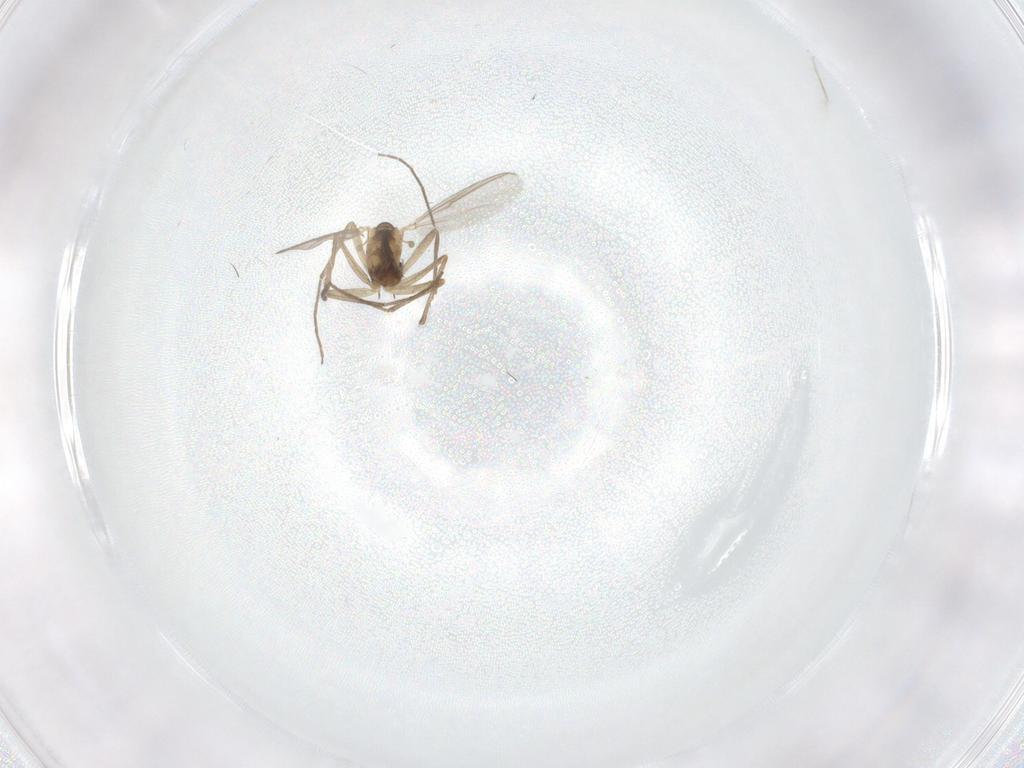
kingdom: Animalia
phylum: Arthropoda
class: Insecta
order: Diptera
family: Chironomidae
